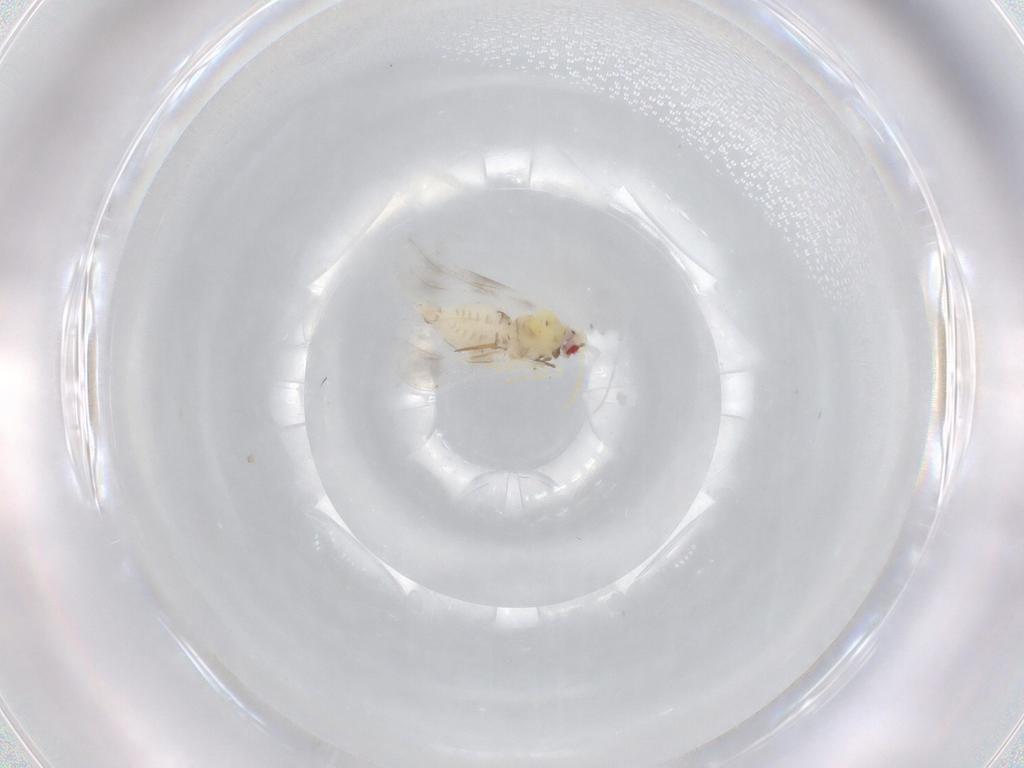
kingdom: Animalia
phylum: Arthropoda
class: Insecta
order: Hemiptera
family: Aleyrodidae
